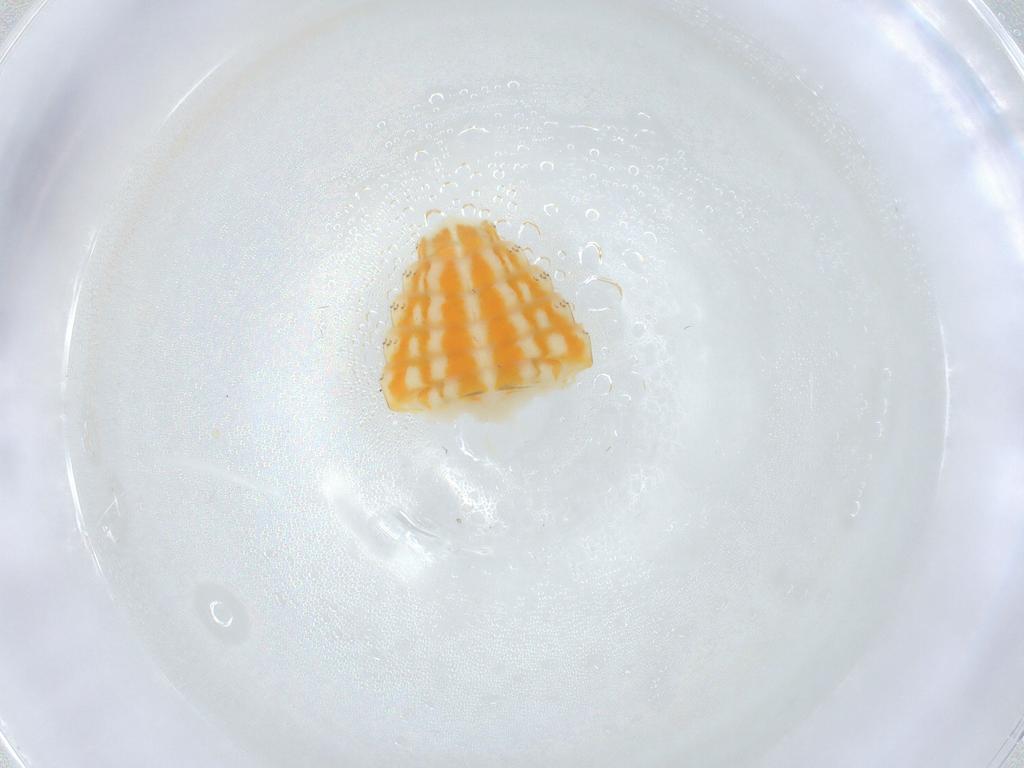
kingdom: Animalia
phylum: Arthropoda
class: Insecta
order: Hemiptera
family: Issidae
